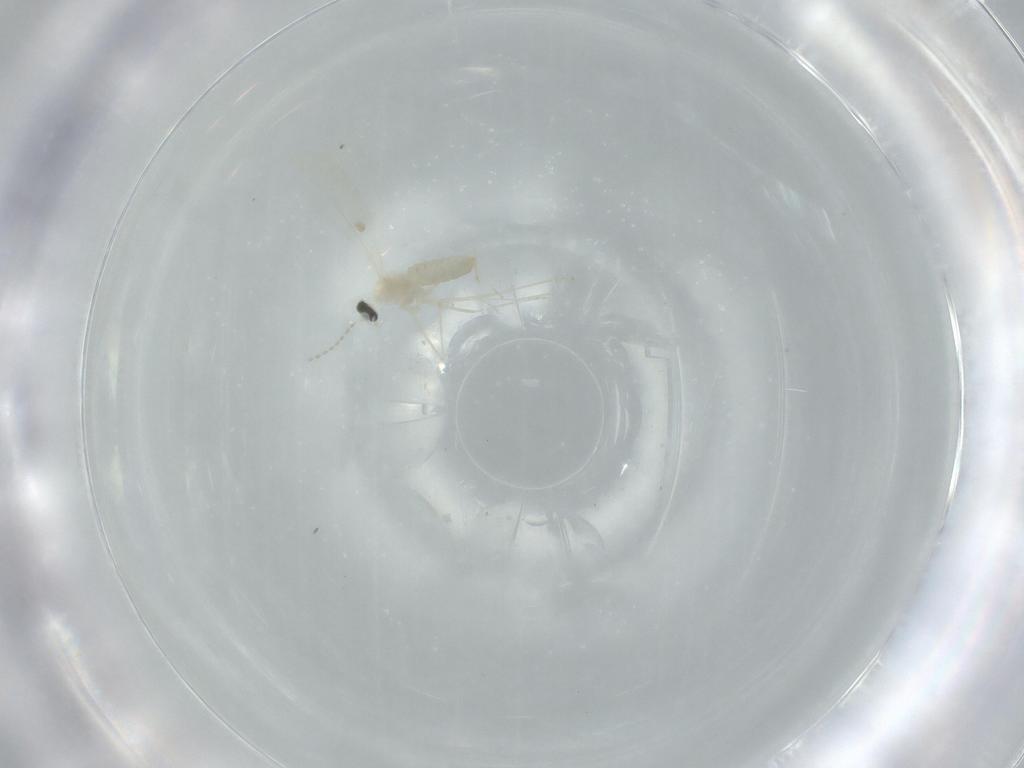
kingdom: Animalia
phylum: Arthropoda
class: Insecta
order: Diptera
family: Cecidomyiidae
